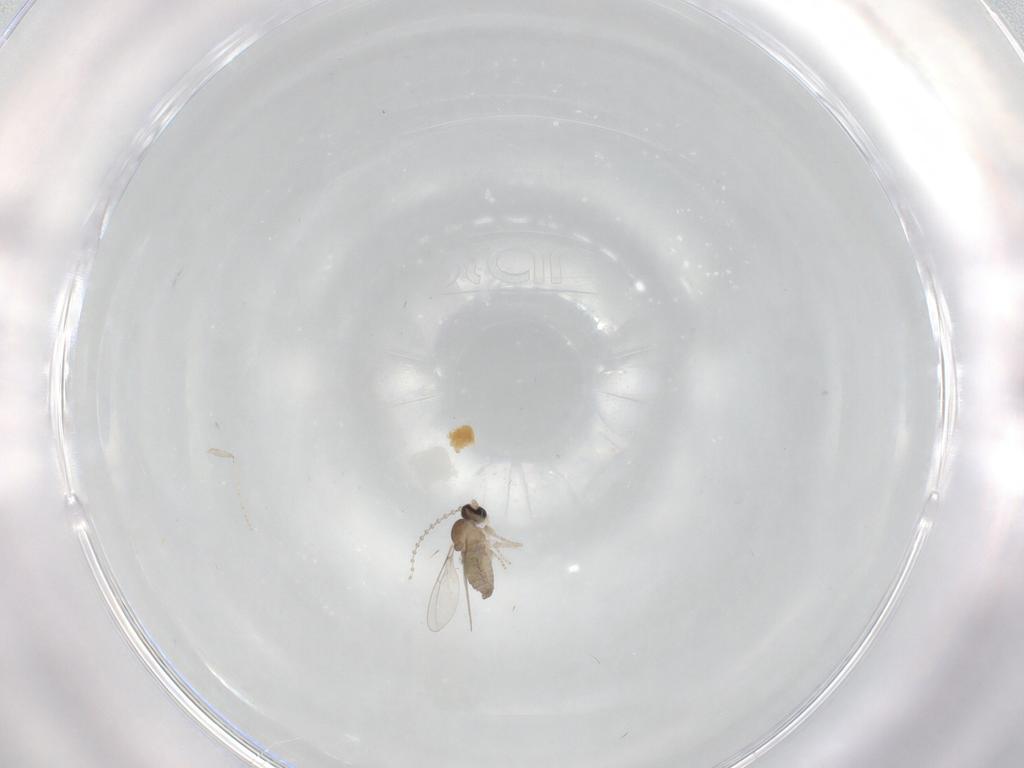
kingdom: Animalia
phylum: Arthropoda
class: Insecta
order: Diptera
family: Cecidomyiidae
